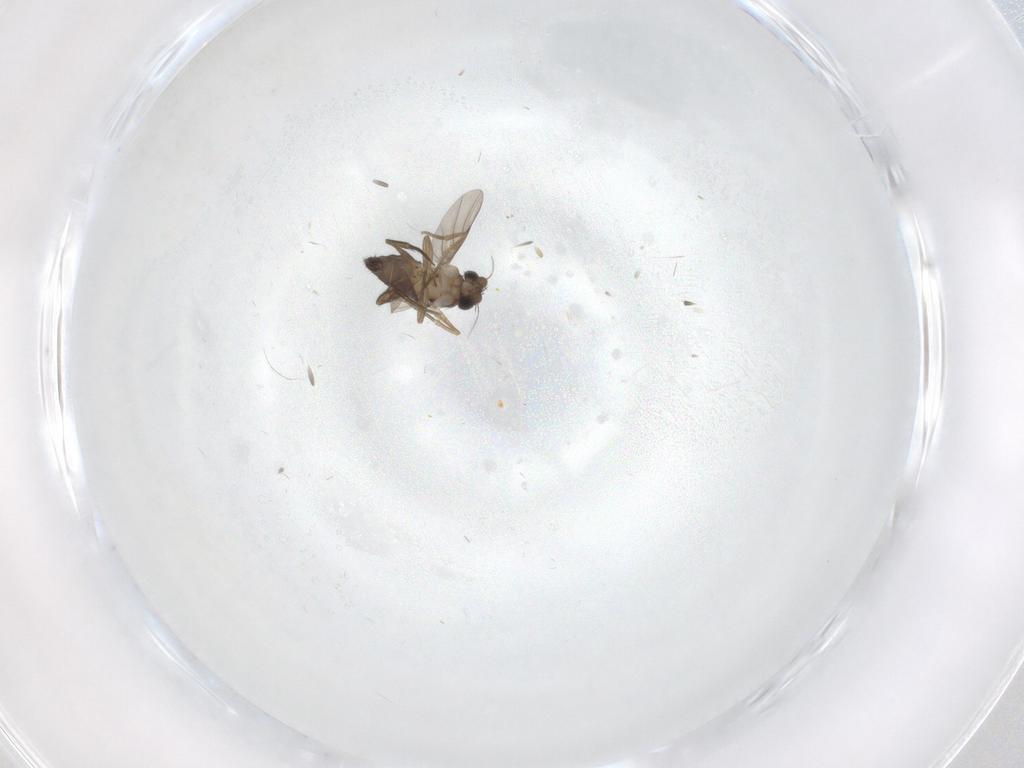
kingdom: Animalia
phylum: Arthropoda
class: Insecta
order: Diptera
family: Phoridae
